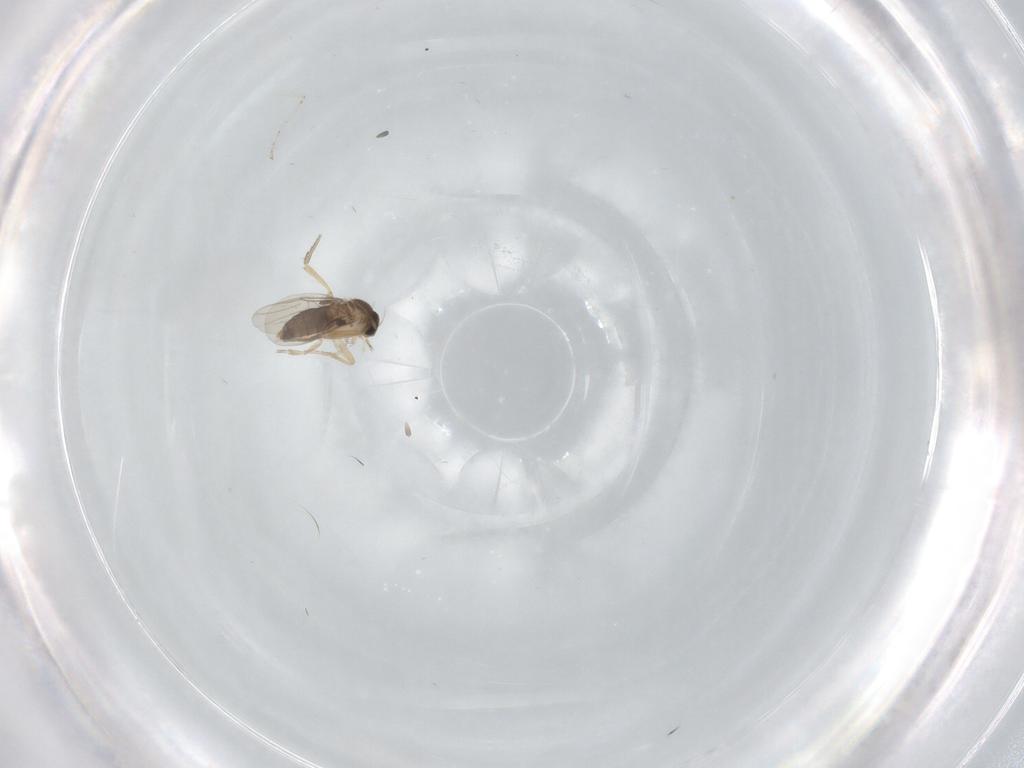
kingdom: Animalia
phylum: Arthropoda
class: Insecta
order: Diptera
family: Phoridae
